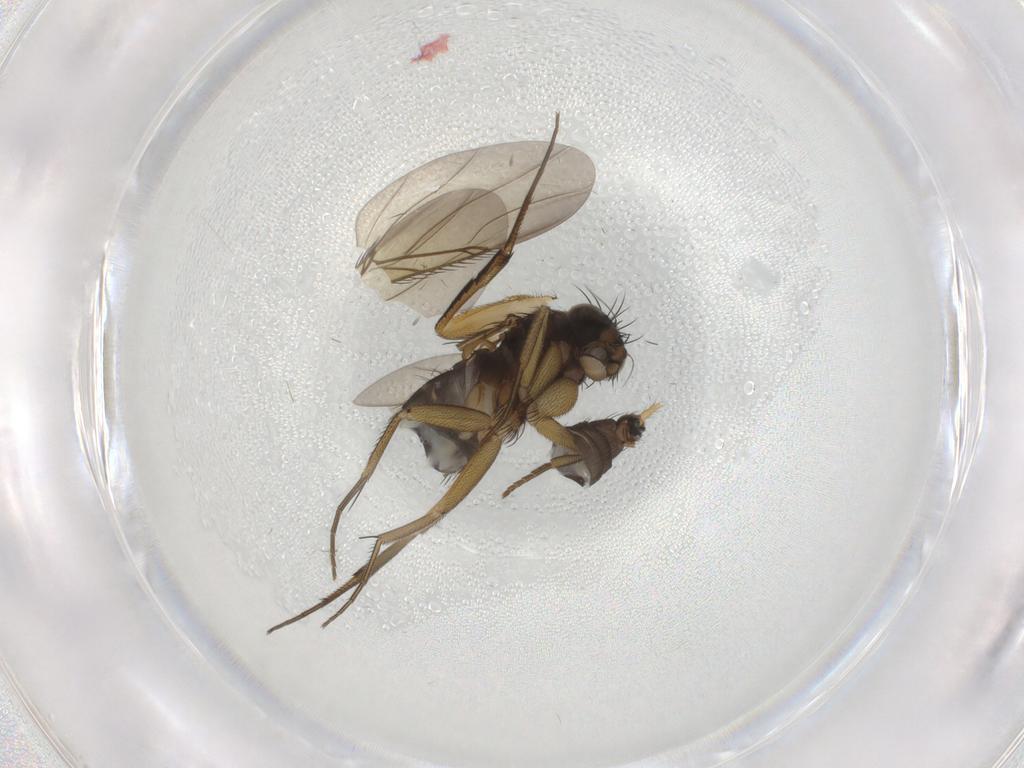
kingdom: Animalia
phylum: Arthropoda
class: Insecta
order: Diptera
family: Phoridae
